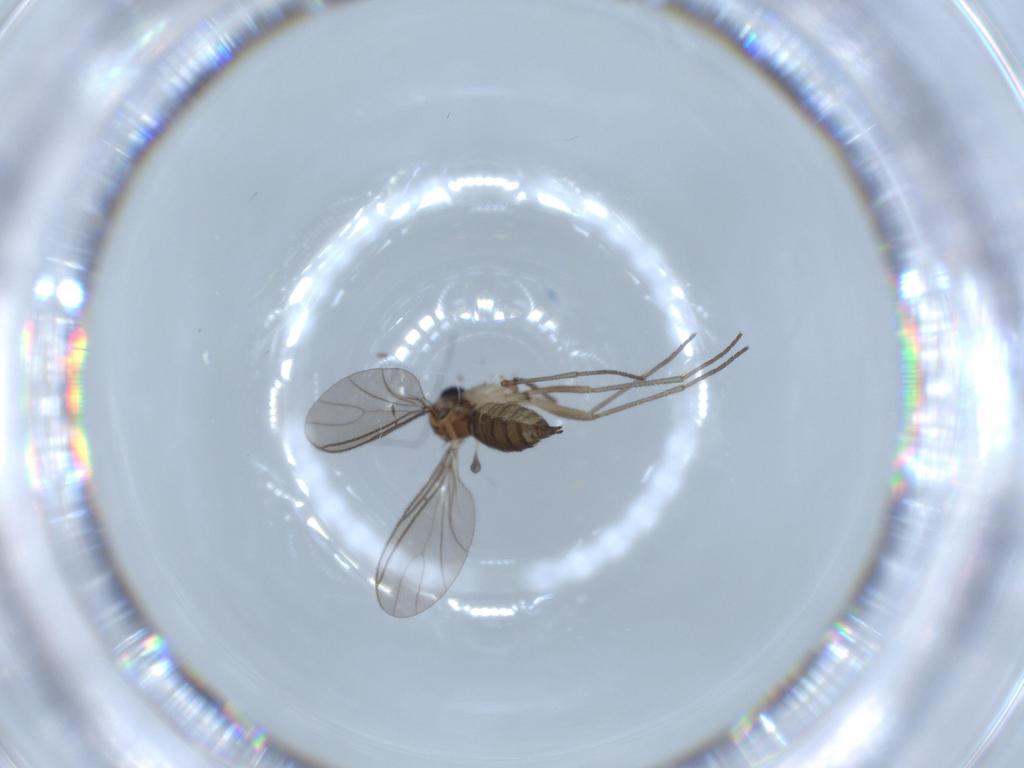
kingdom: Animalia
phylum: Arthropoda
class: Insecta
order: Diptera
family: Sciaridae
